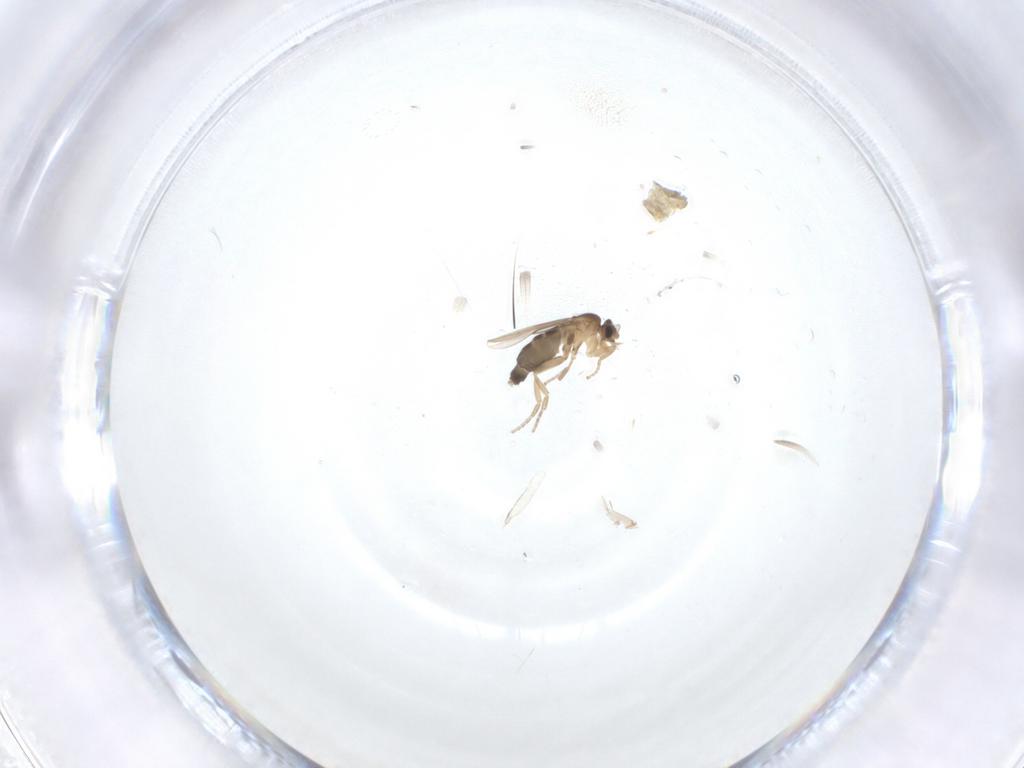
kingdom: Animalia
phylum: Arthropoda
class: Insecta
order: Diptera
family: Phoridae
